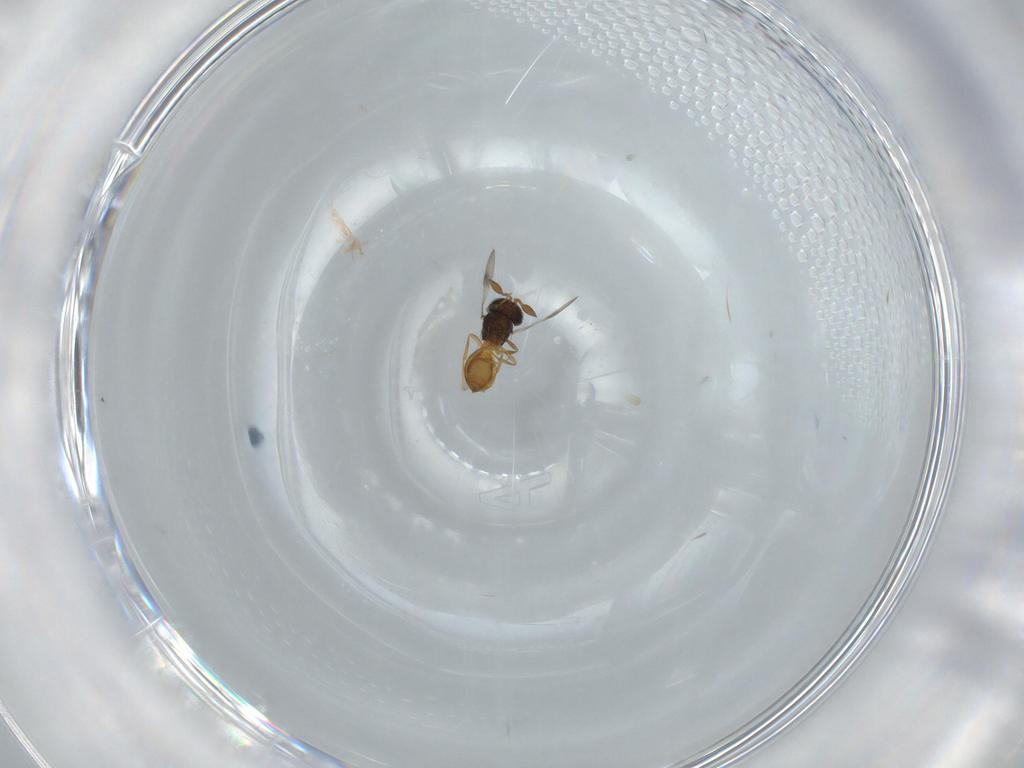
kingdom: Animalia
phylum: Arthropoda
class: Insecta
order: Hymenoptera
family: Scelionidae
